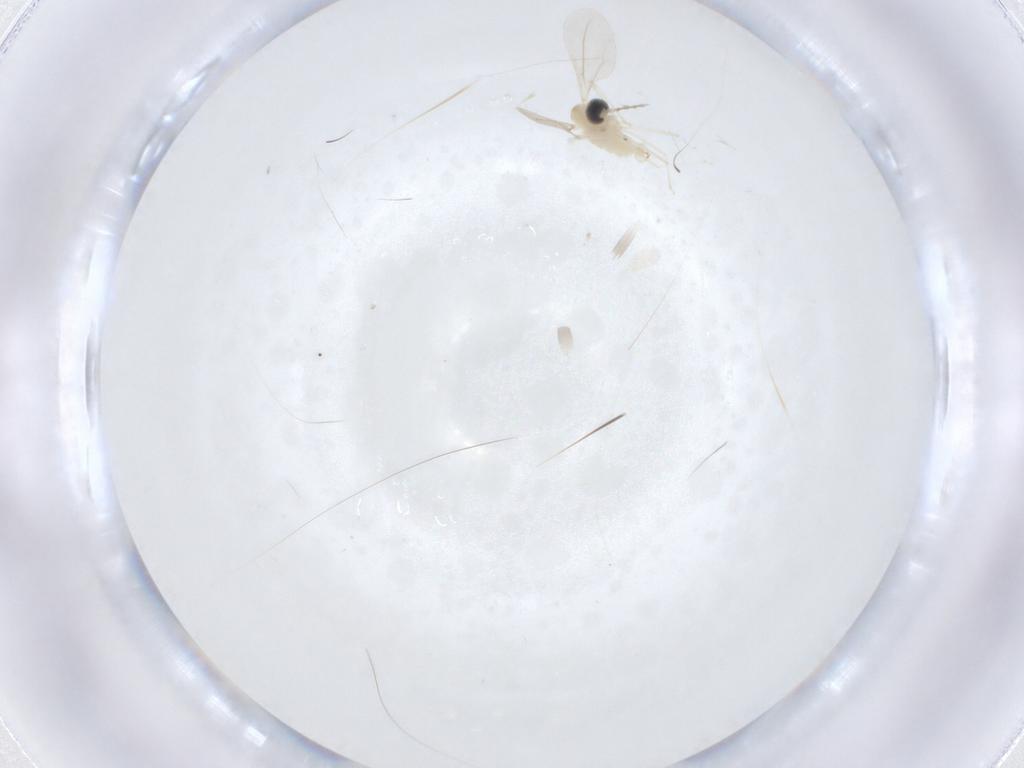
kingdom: Animalia
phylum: Arthropoda
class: Insecta
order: Diptera
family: Cecidomyiidae
